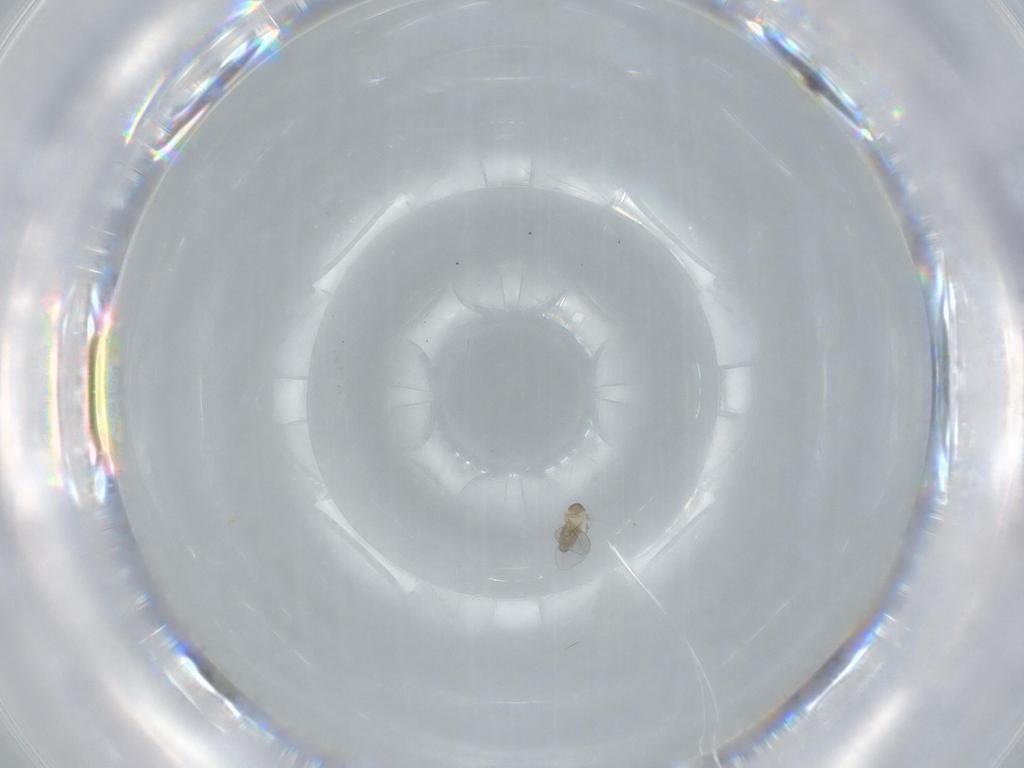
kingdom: Animalia
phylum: Arthropoda
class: Insecta
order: Diptera
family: Cecidomyiidae
